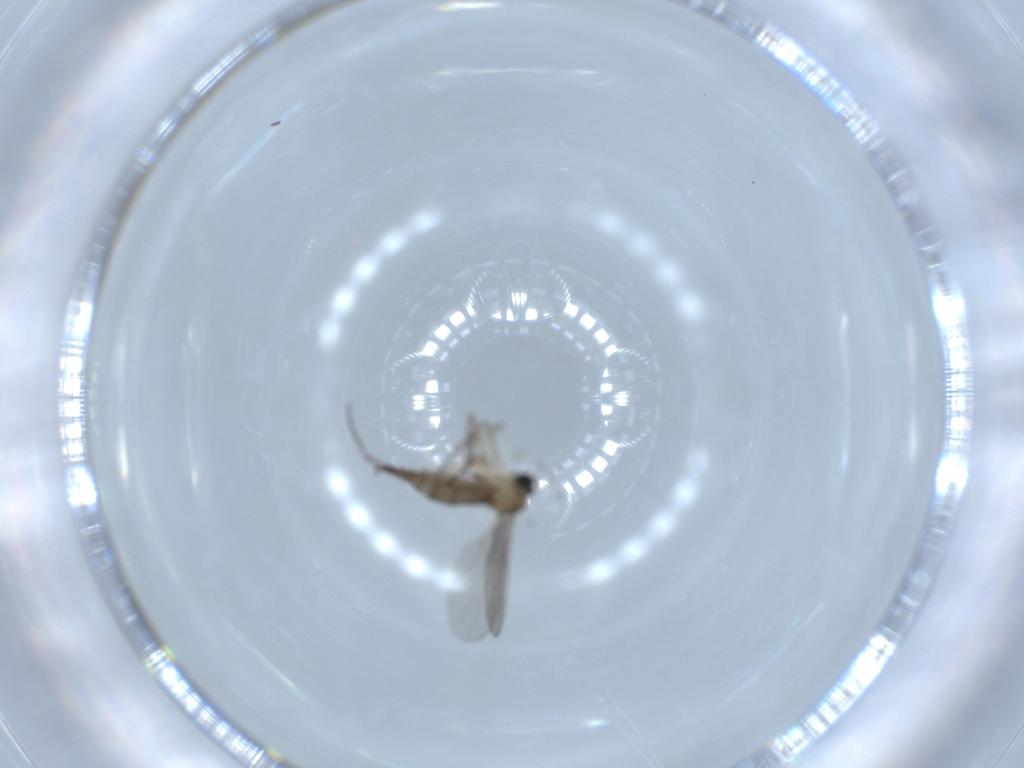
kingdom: Animalia
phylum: Arthropoda
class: Insecta
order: Diptera
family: Sciaridae
